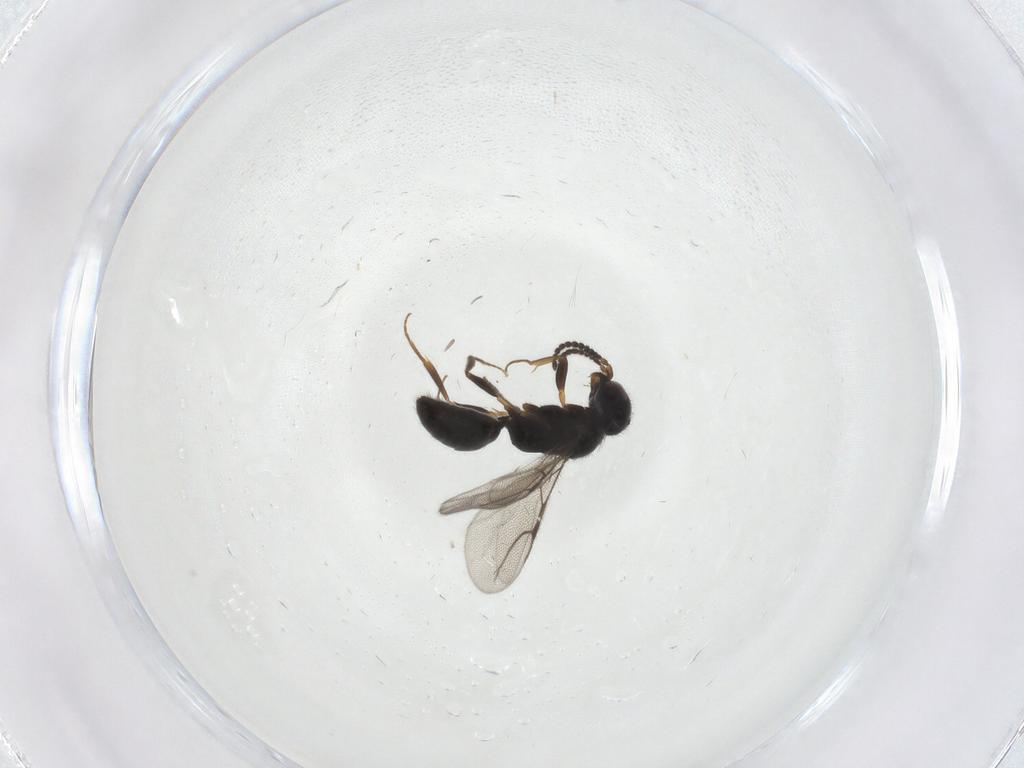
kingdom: Animalia
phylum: Arthropoda
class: Insecta
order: Hymenoptera
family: Bethylidae
